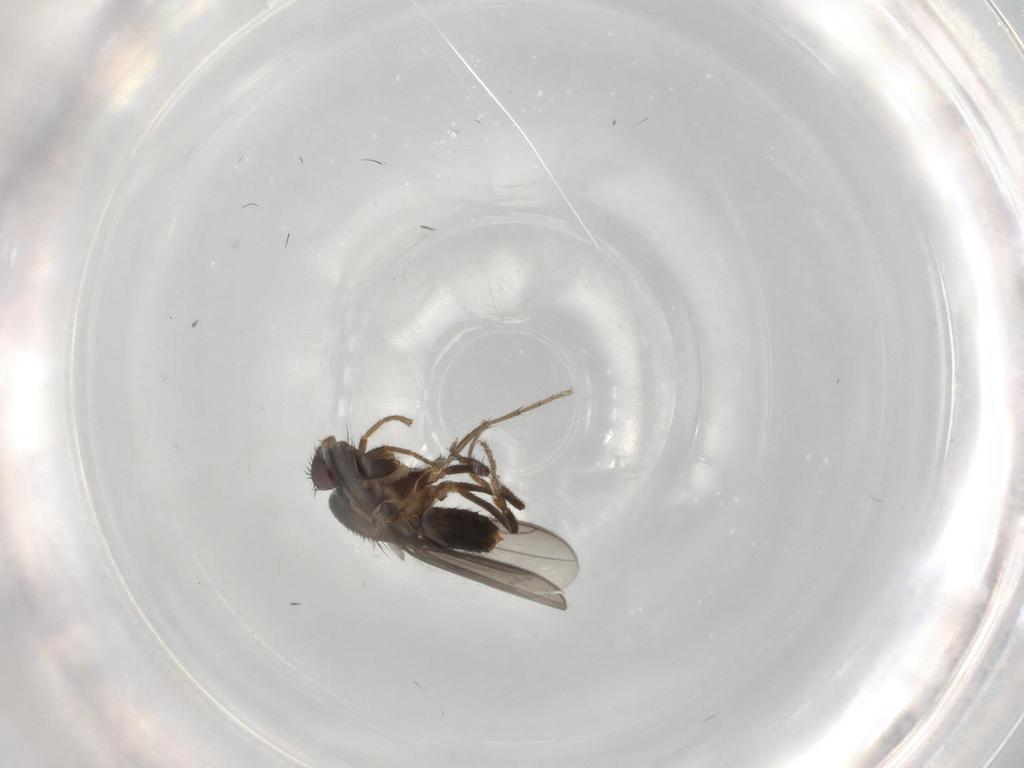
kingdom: Animalia
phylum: Arthropoda
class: Insecta
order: Diptera
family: Sphaeroceridae
